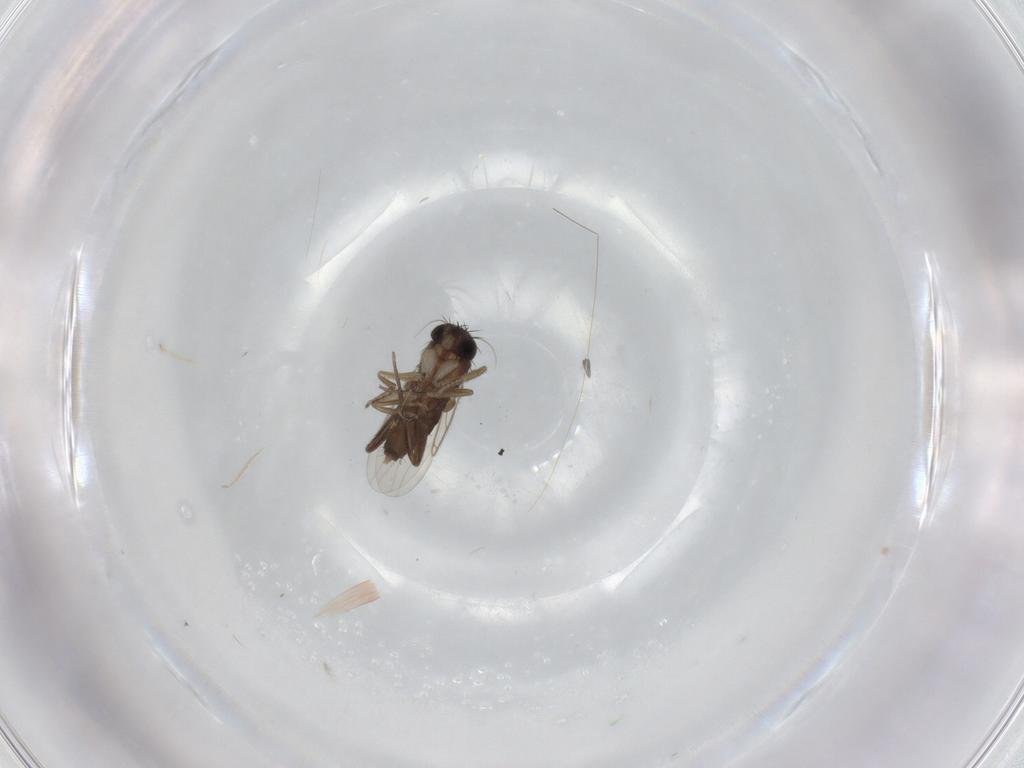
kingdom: Animalia
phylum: Arthropoda
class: Insecta
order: Diptera
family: Phoridae
